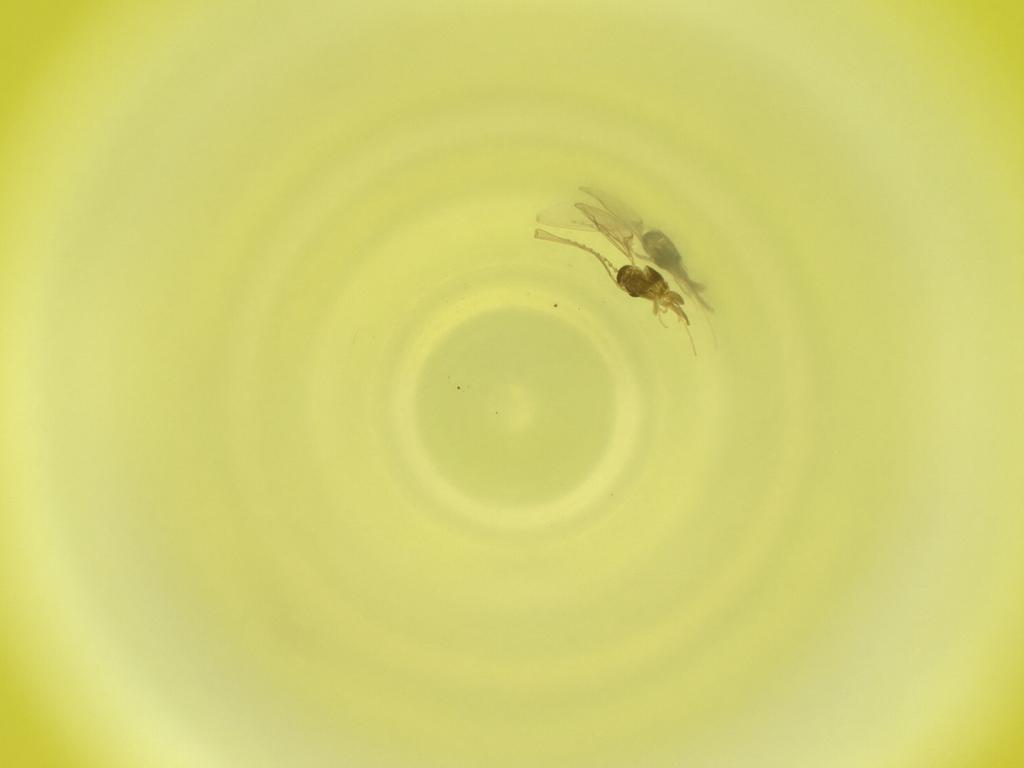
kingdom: Animalia
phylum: Arthropoda
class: Insecta
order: Diptera
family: Cecidomyiidae
